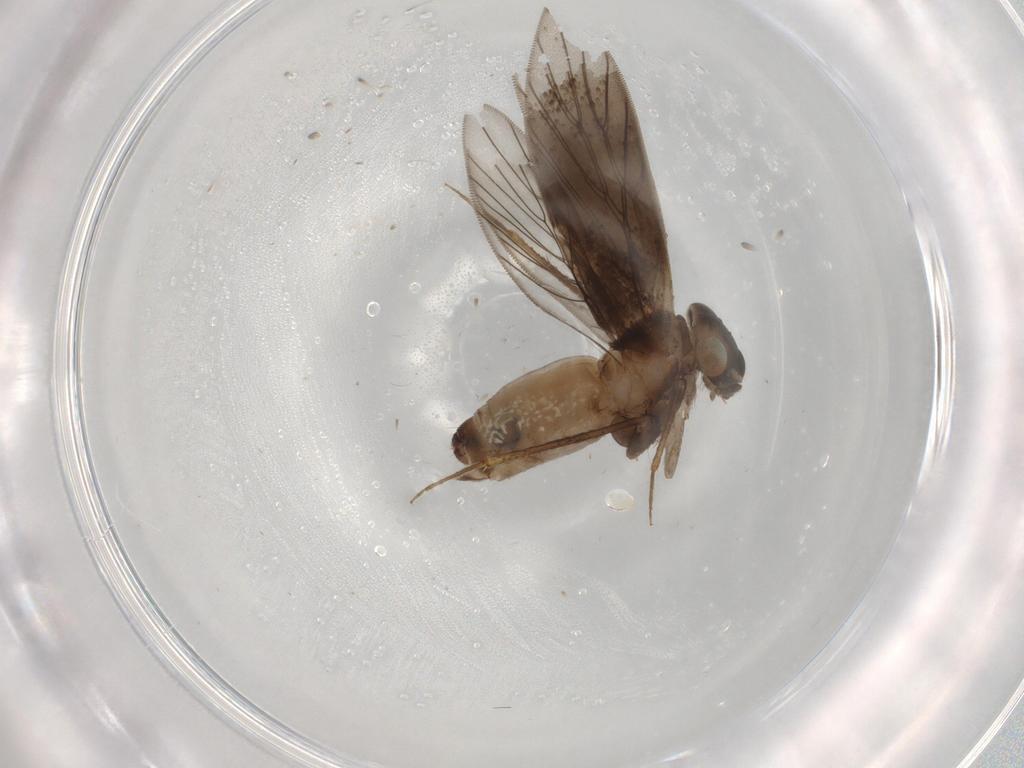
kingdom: Animalia
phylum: Arthropoda
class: Insecta
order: Psocodea
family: Lepidopsocidae
